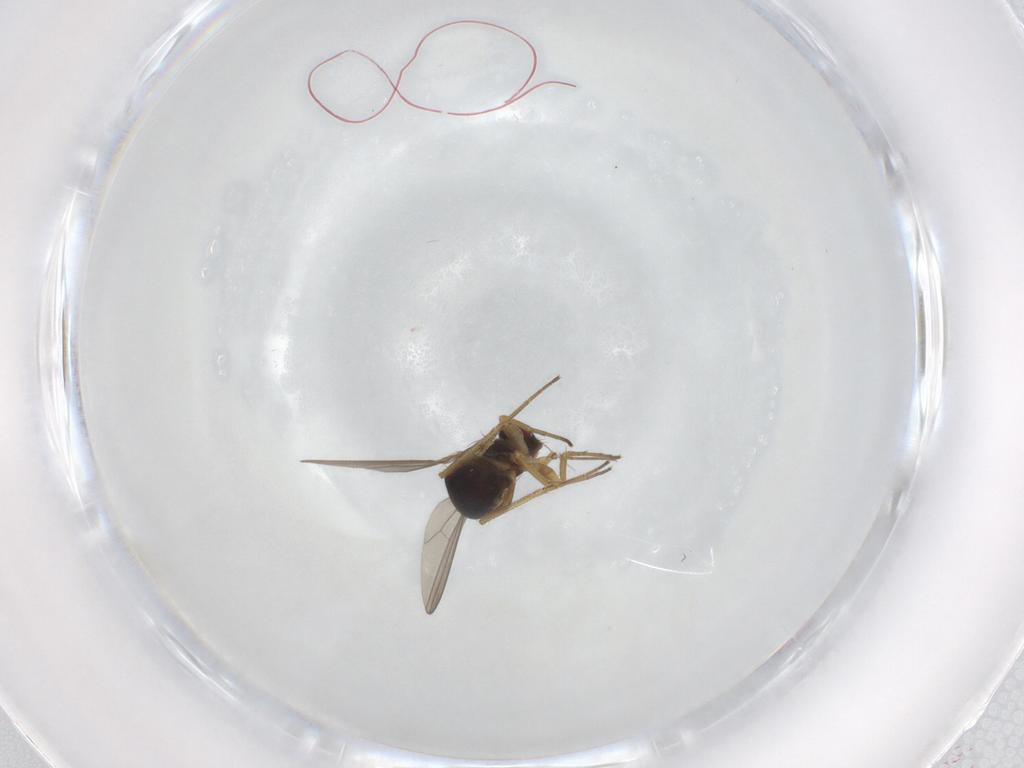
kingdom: Animalia
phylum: Arthropoda
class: Insecta
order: Diptera
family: Dolichopodidae
